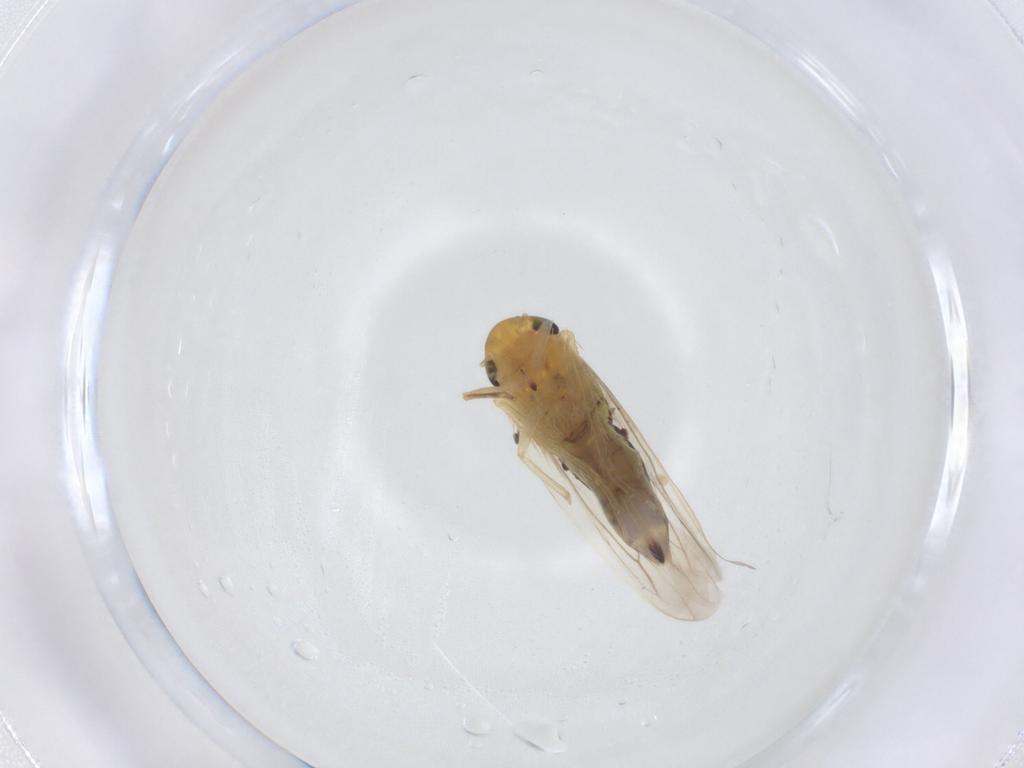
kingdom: Animalia
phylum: Arthropoda
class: Insecta
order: Hemiptera
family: Cicadellidae
